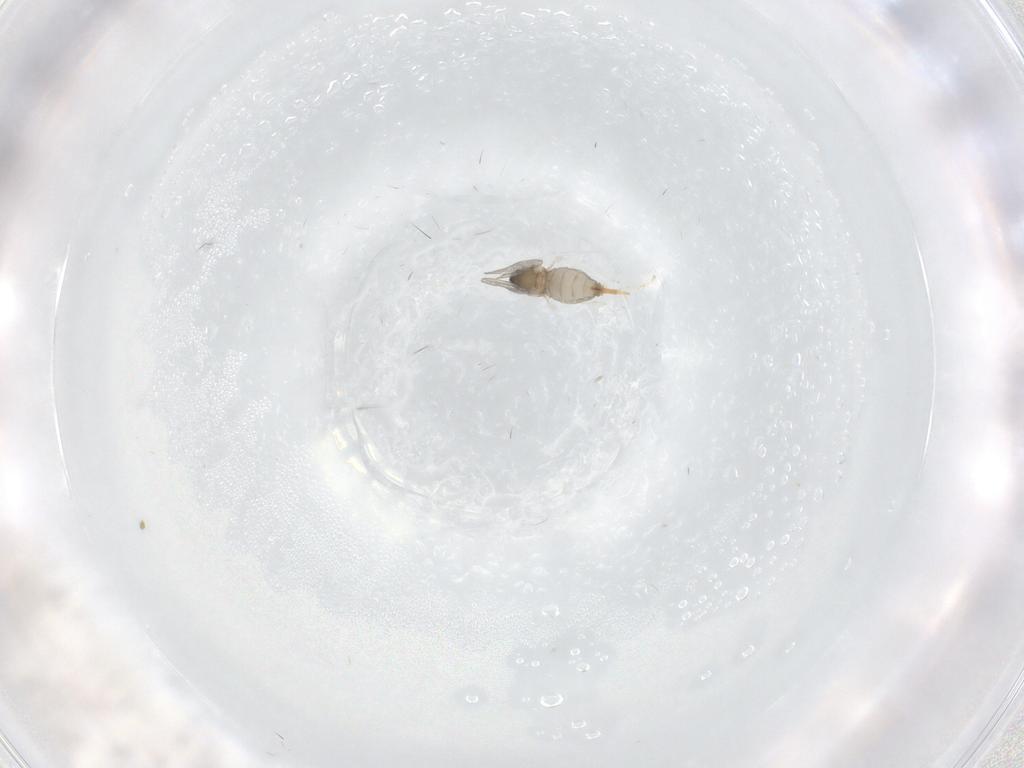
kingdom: Animalia
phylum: Arthropoda
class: Insecta
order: Diptera
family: Cecidomyiidae
